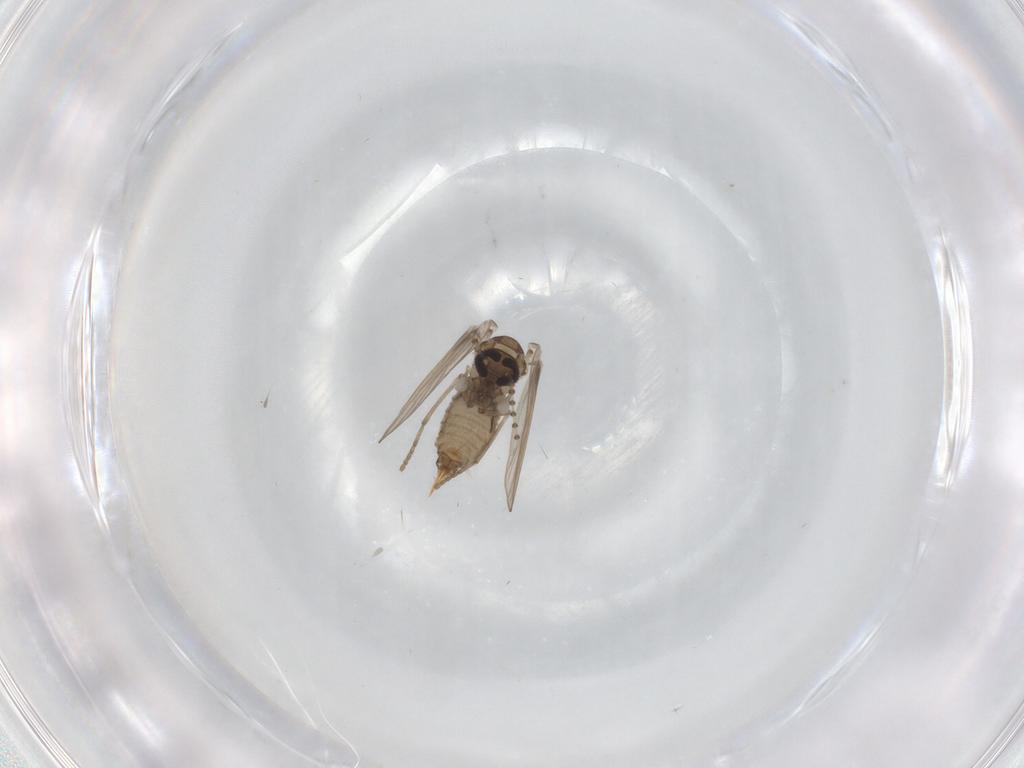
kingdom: Animalia
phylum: Arthropoda
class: Insecta
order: Diptera
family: Psychodidae
